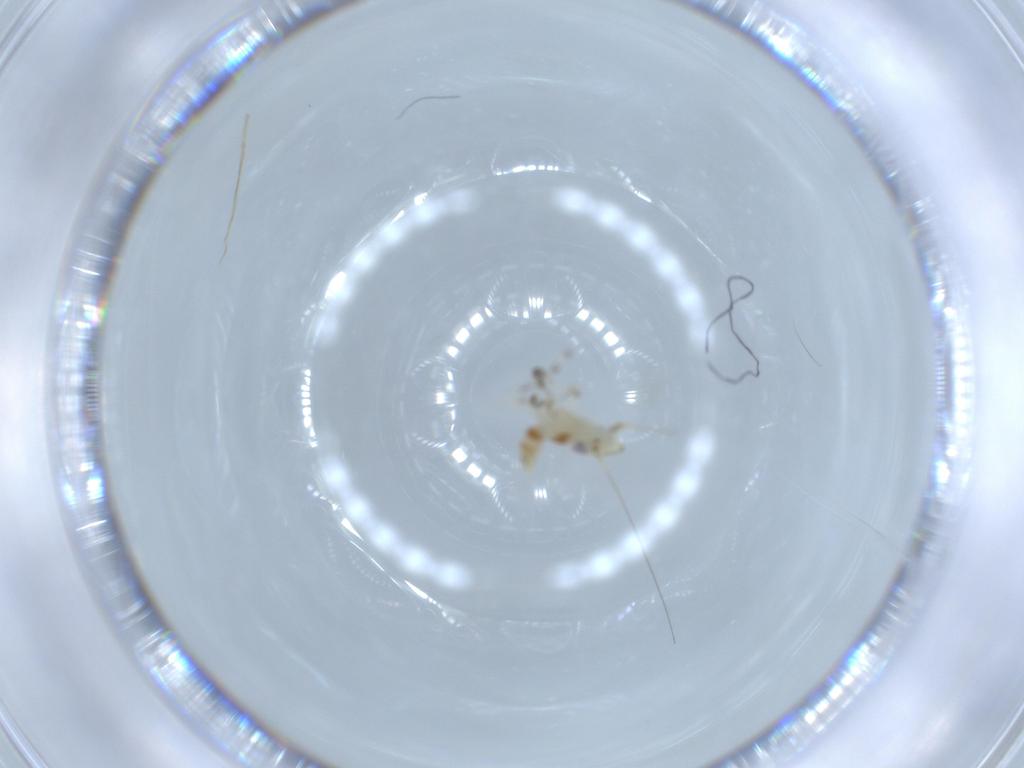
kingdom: Animalia
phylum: Arthropoda
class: Insecta
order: Hemiptera
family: Cicadellidae
